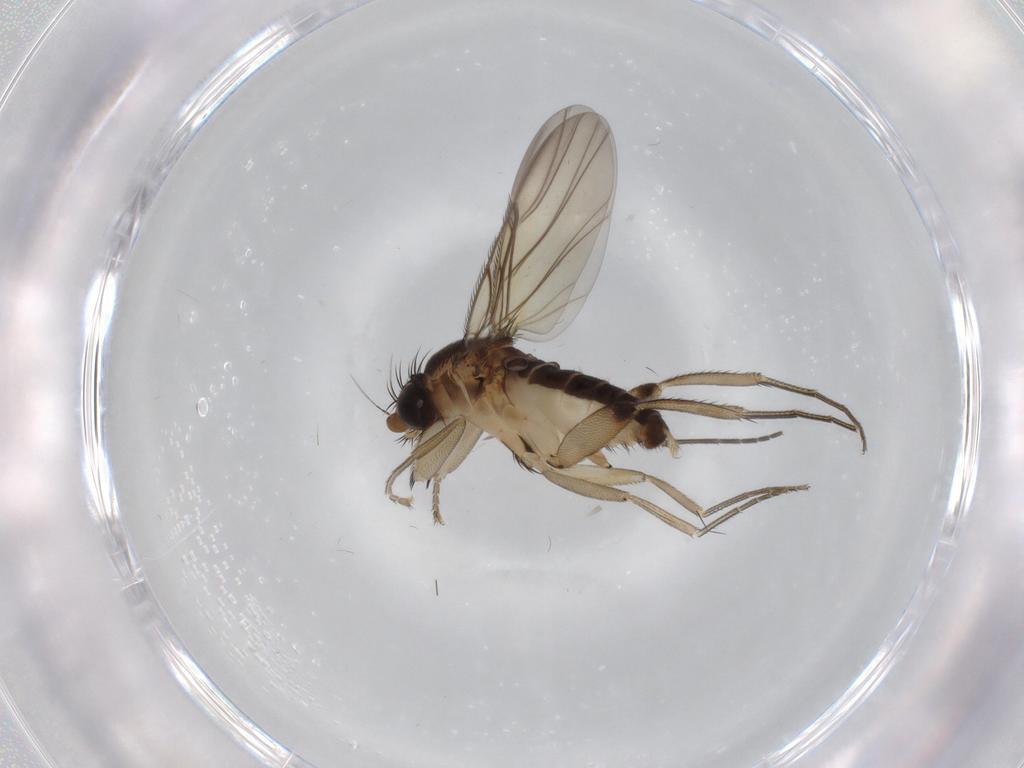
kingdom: Animalia
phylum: Arthropoda
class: Insecta
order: Diptera
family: Phoridae
